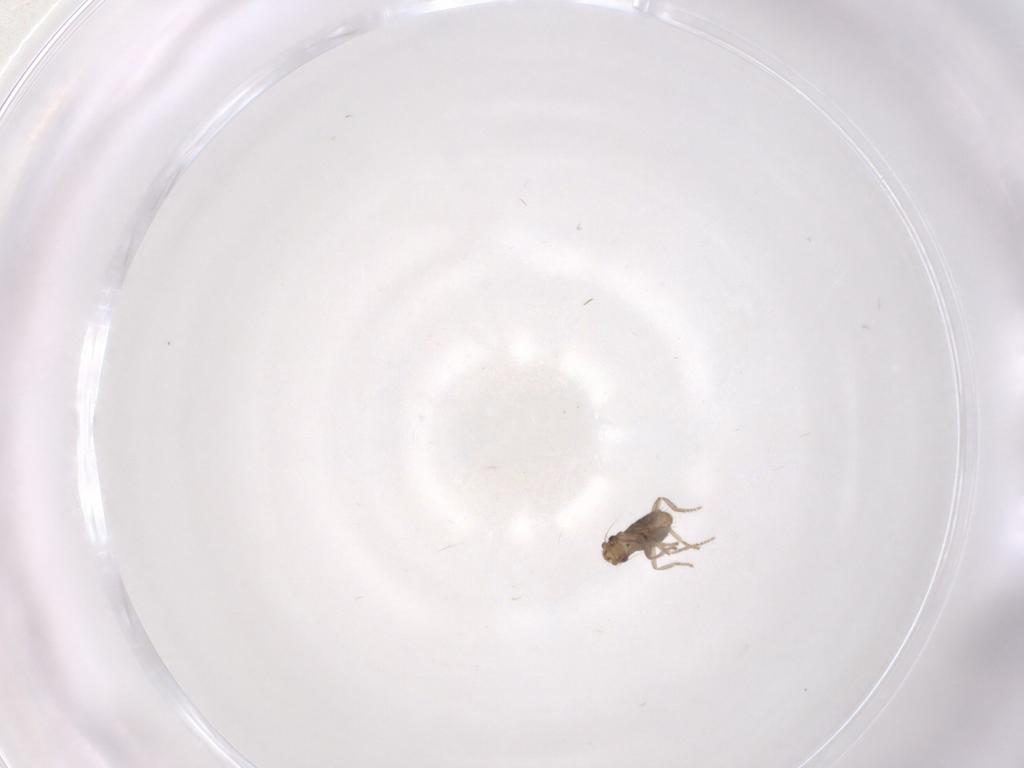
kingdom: Animalia
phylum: Arthropoda
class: Insecta
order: Diptera
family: Phoridae
